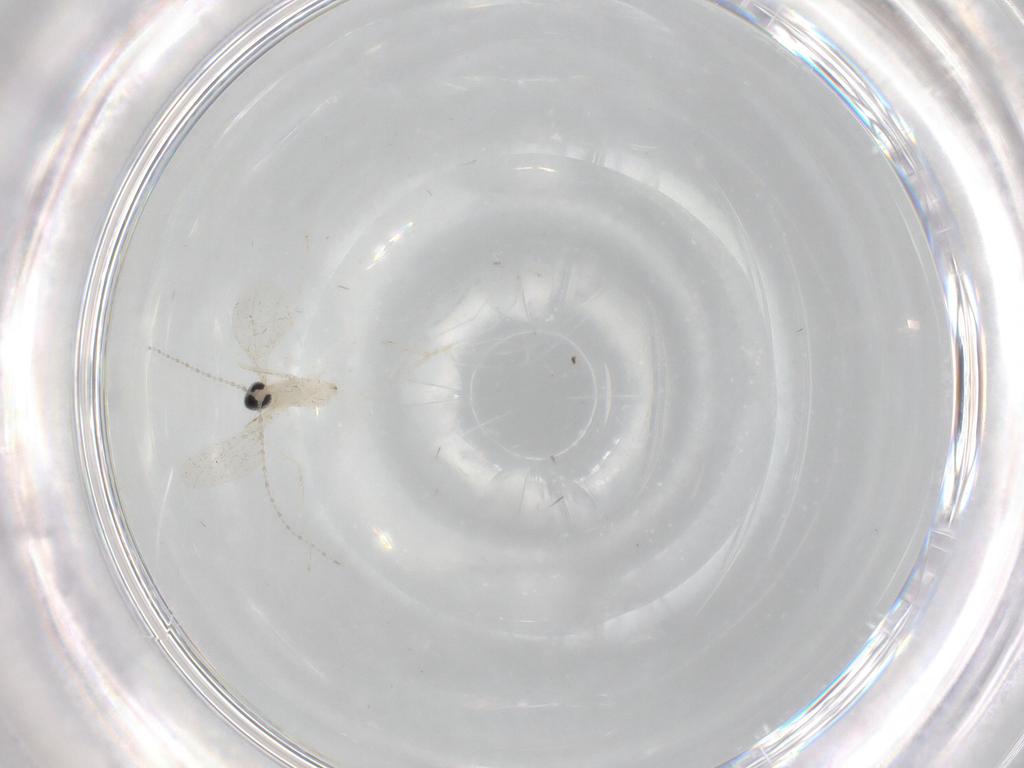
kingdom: Animalia
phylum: Arthropoda
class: Insecta
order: Diptera
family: Cecidomyiidae
